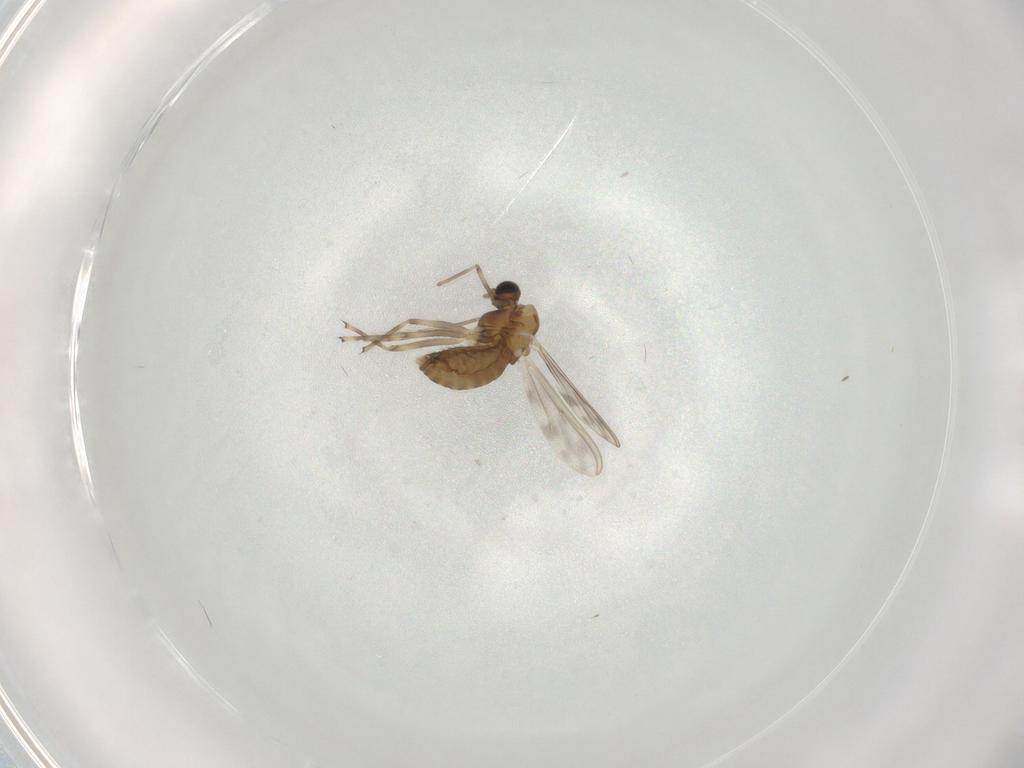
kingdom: Animalia
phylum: Arthropoda
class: Insecta
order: Diptera
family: Chironomidae
